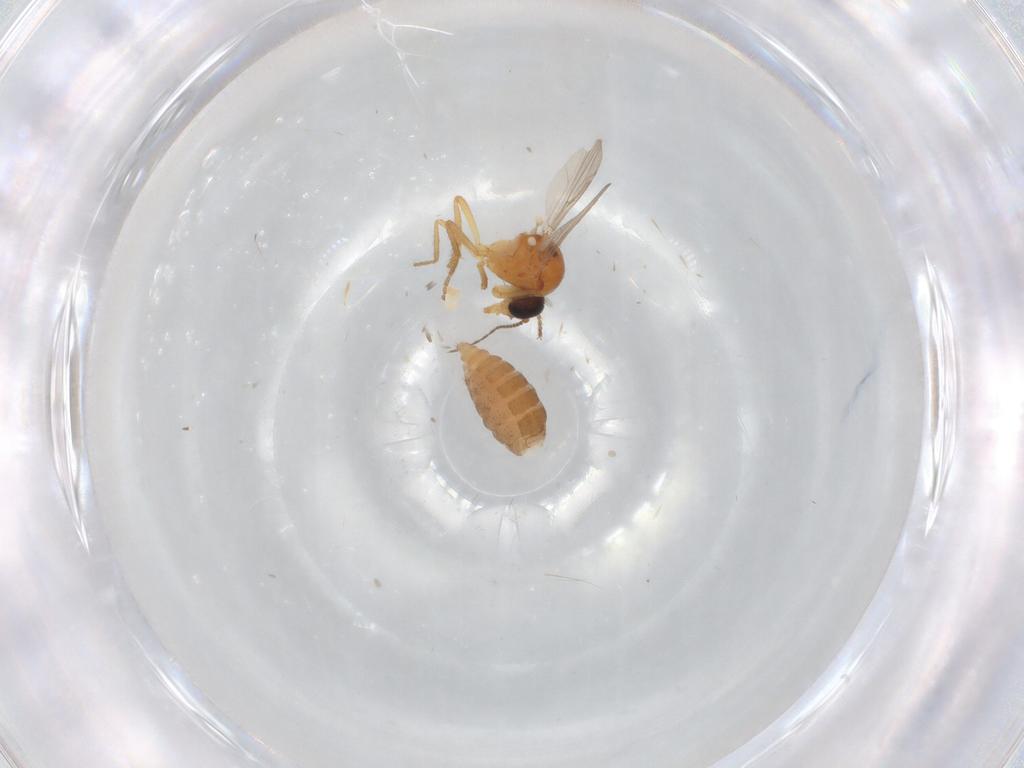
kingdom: Animalia
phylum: Arthropoda
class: Insecta
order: Diptera
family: Ceratopogonidae
